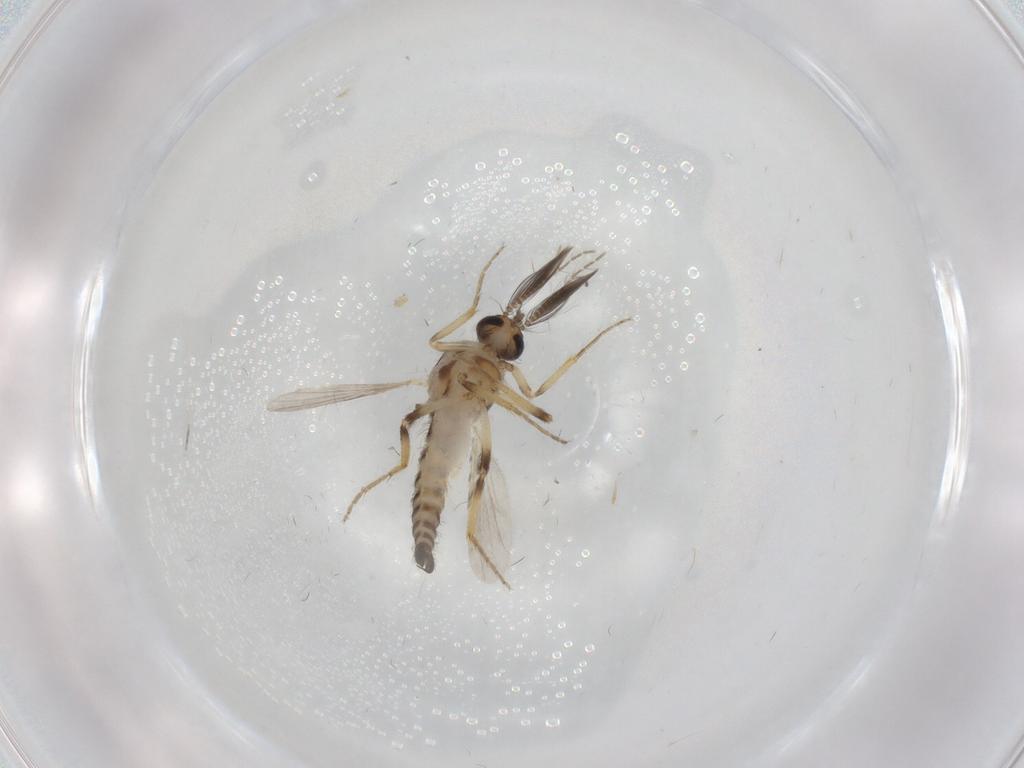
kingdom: Animalia
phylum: Arthropoda
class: Insecta
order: Diptera
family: Ceratopogonidae
